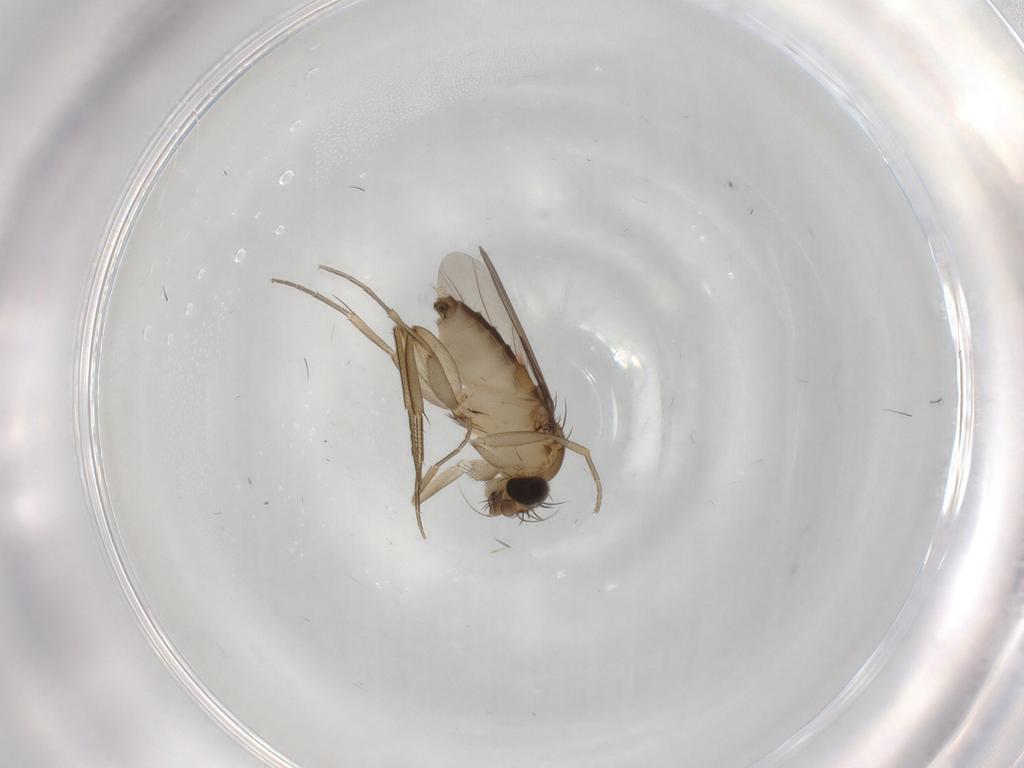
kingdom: Animalia
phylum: Arthropoda
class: Insecta
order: Diptera
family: Phoridae
